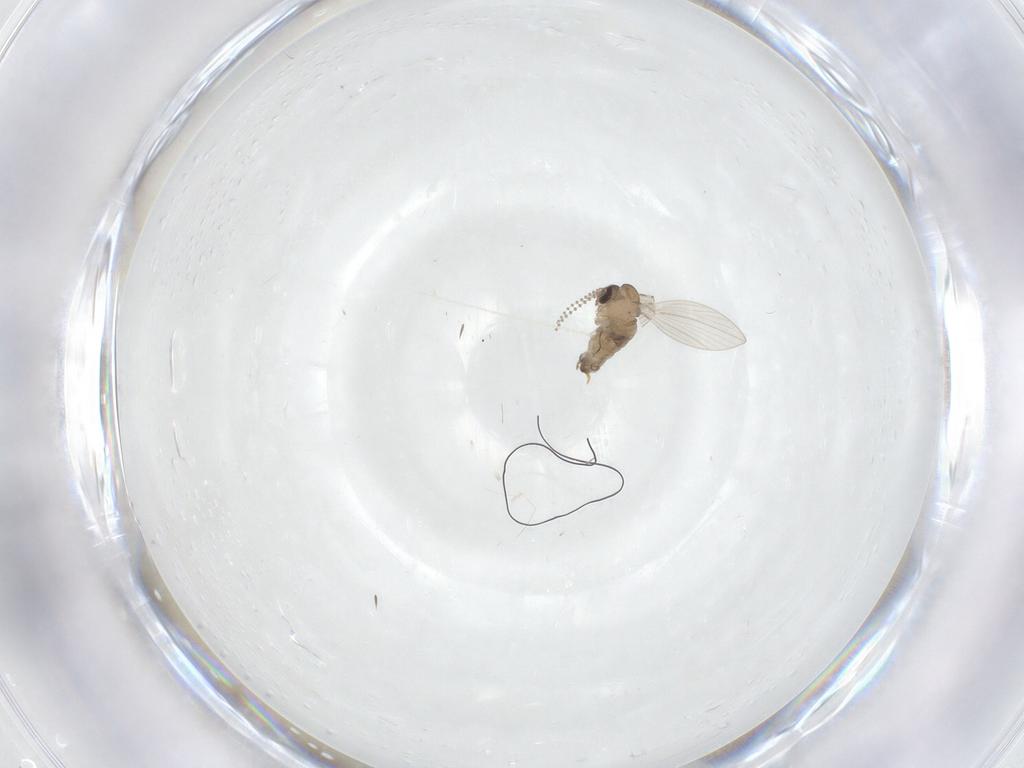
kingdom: Animalia
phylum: Arthropoda
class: Insecta
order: Diptera
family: Psychodidae
